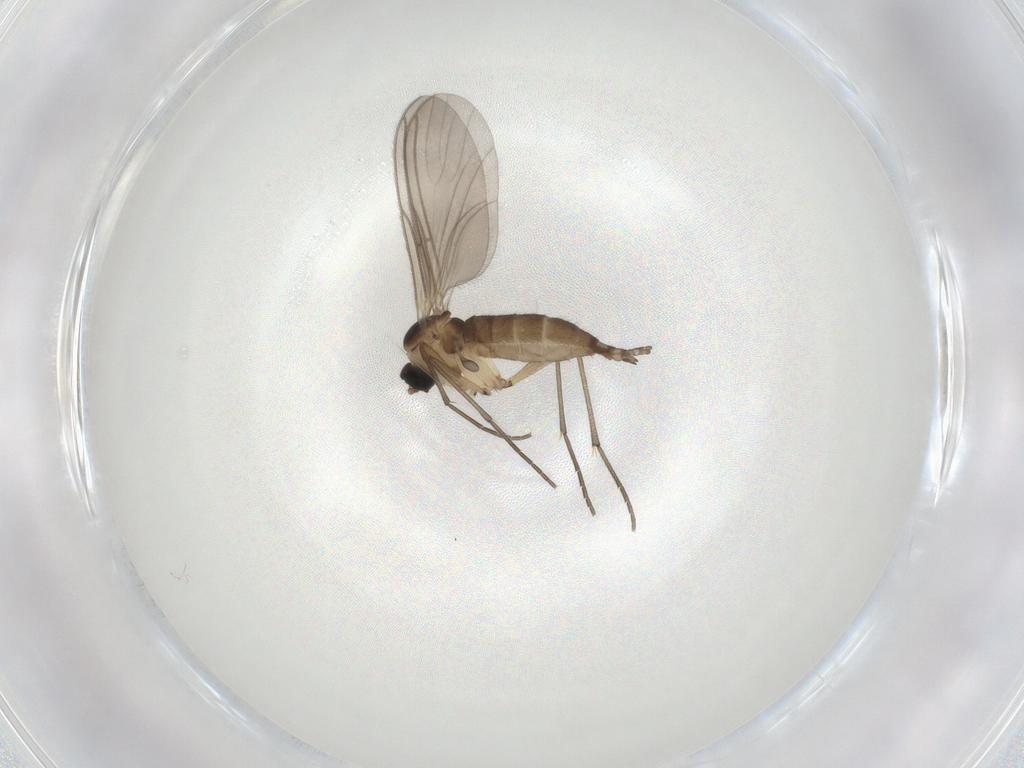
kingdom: Animalia
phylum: Arthropoda
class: Insecta
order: Diptera
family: Sciaridae
